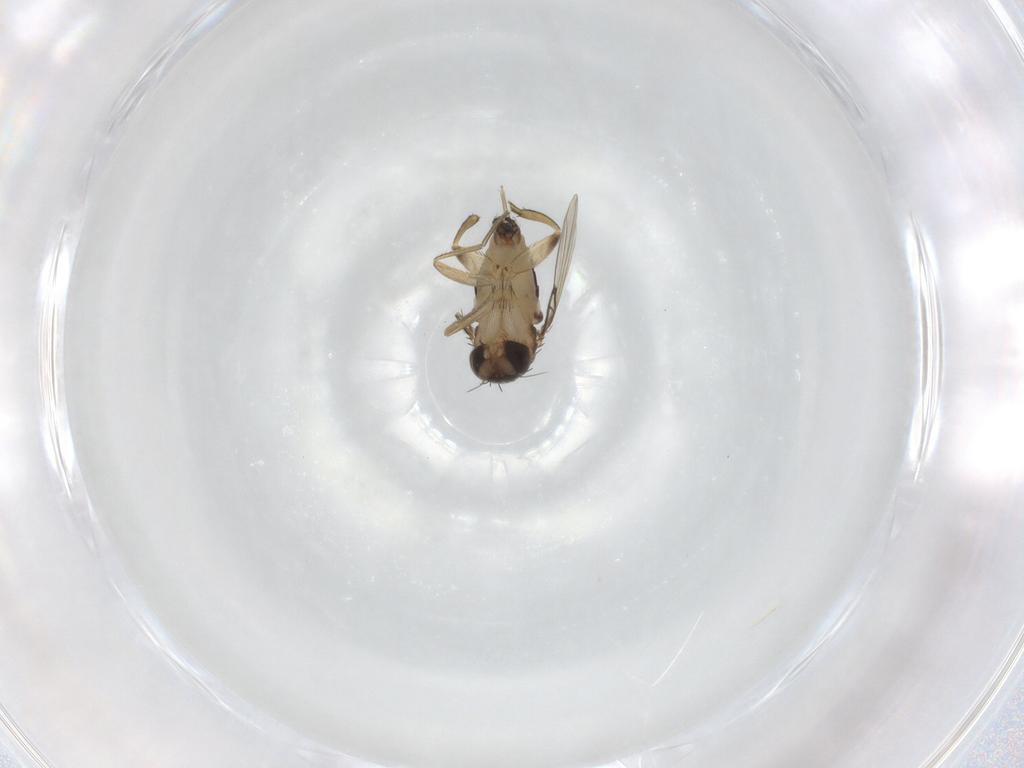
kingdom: Animalia
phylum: Arthropoda
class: Insecta
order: Diptera
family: Phoridae
